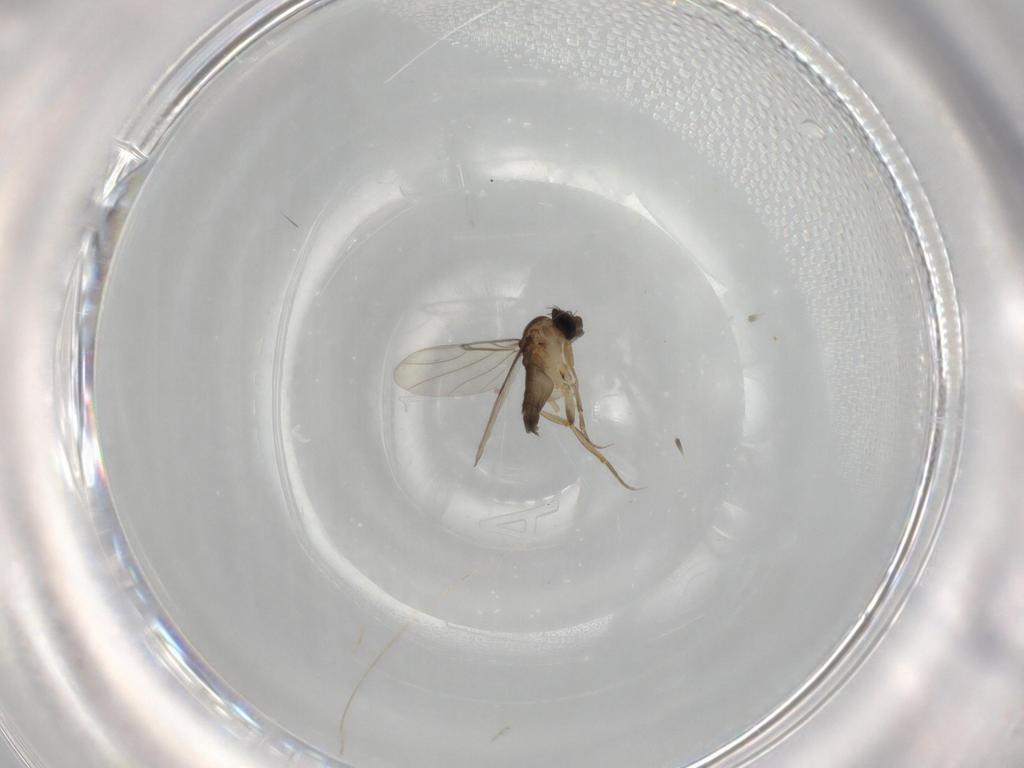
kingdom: Animalia
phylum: Arthropoda
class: Insecta
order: Diptera
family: Phoridae
